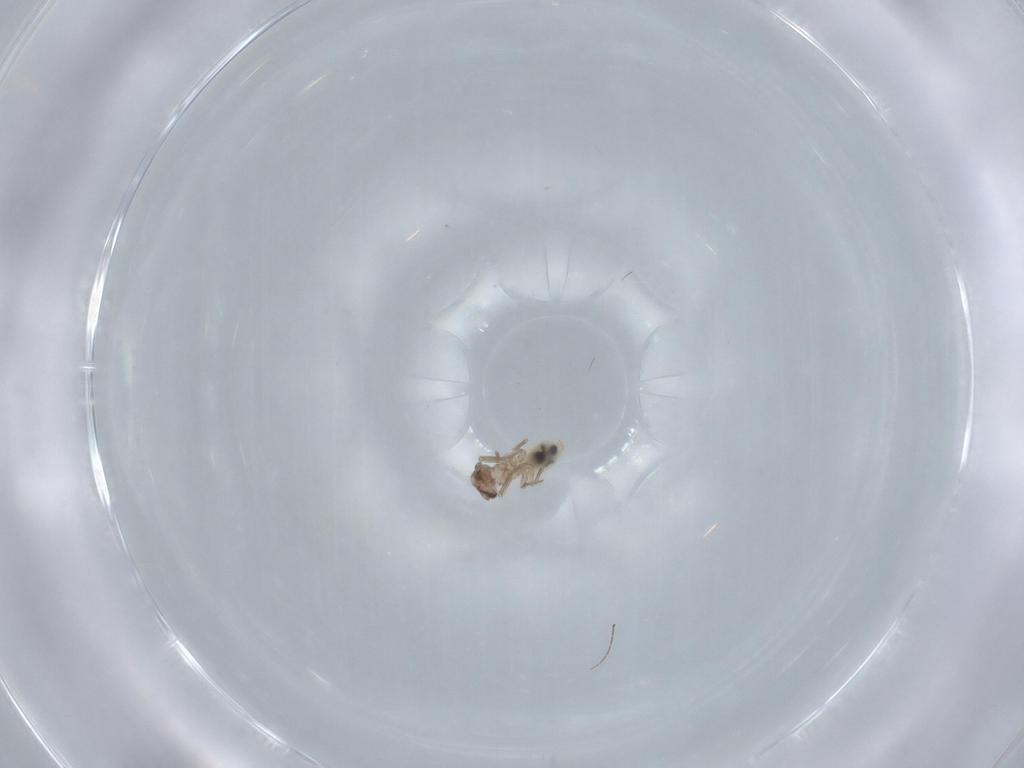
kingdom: Animalia
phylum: Arthropoda
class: Insecta
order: Psocodea
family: Lepidopsocidae
